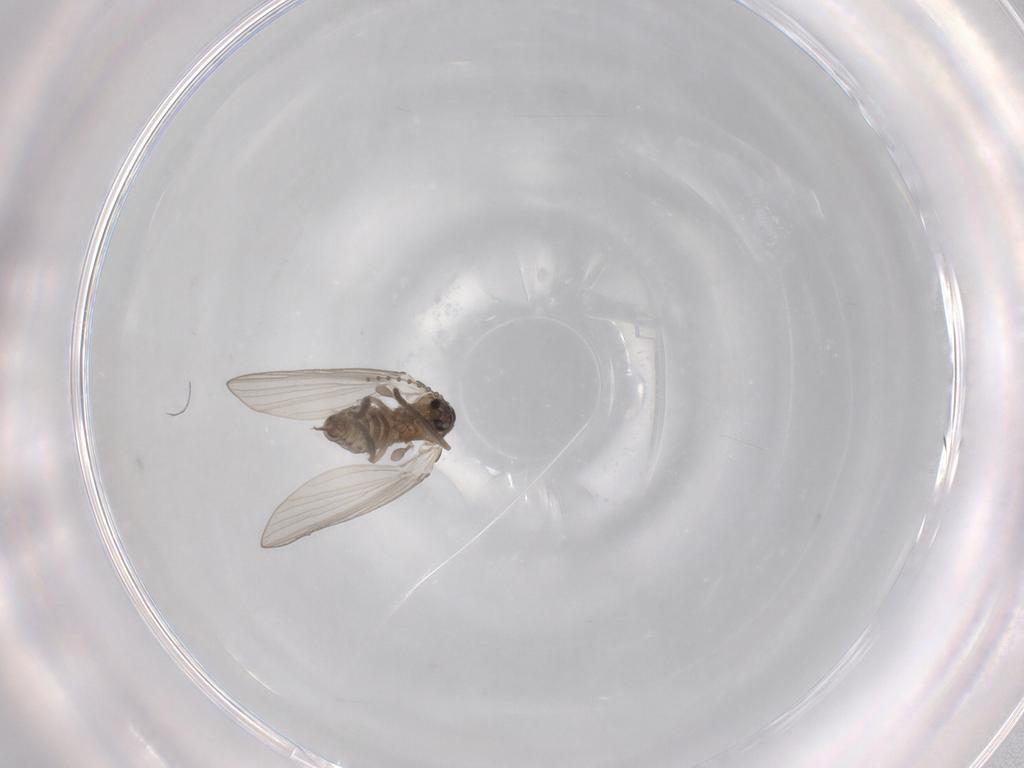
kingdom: Animalia
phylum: Arthropoda
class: Insecta
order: Diptera
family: Psychodidae
